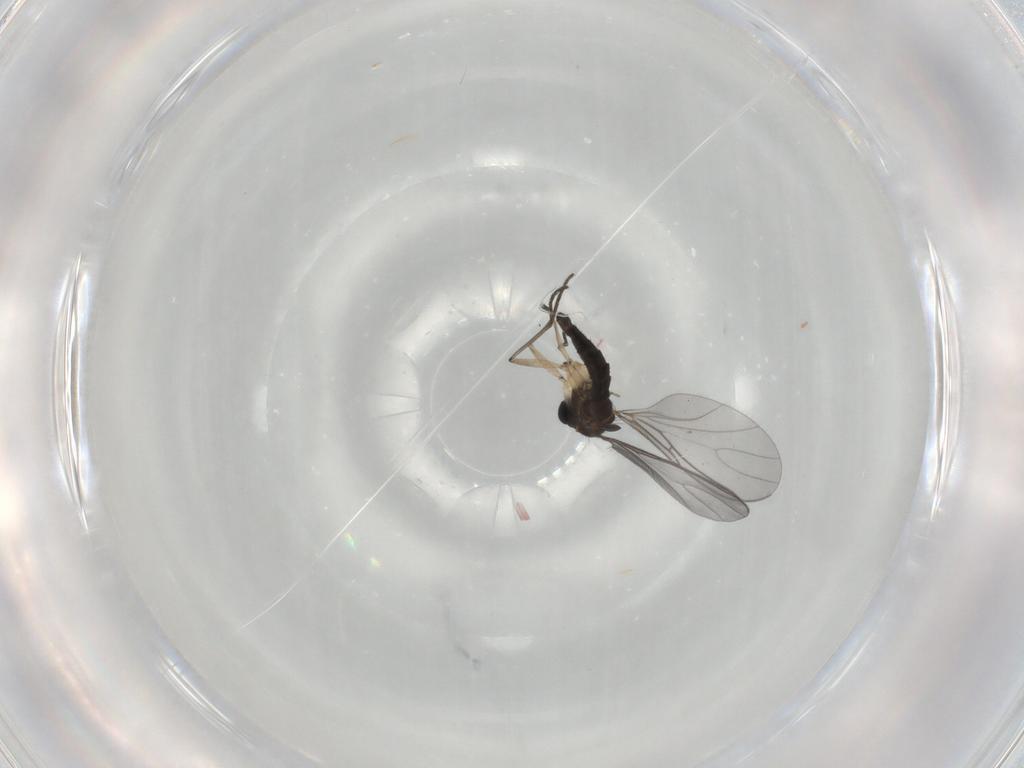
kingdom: Animalia
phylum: Arthropoda
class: Insecta
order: Diptera
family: Sciaridae
